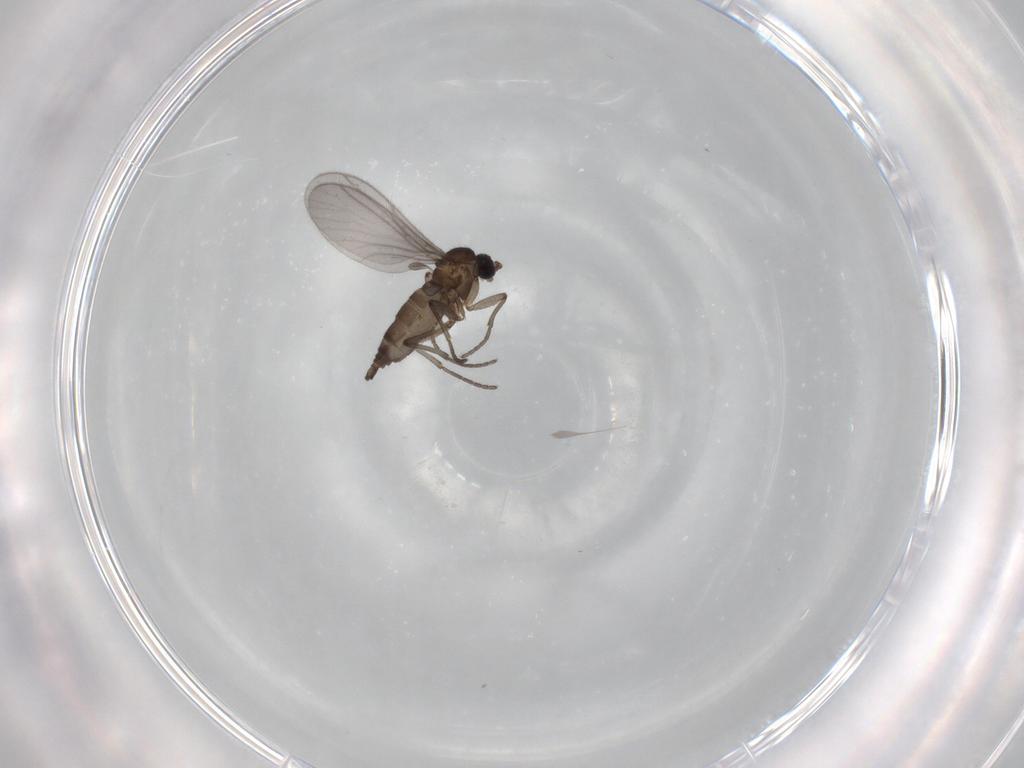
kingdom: Animalia
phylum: Arthropoda
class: Insecta
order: Diptera
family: Sciaridae
